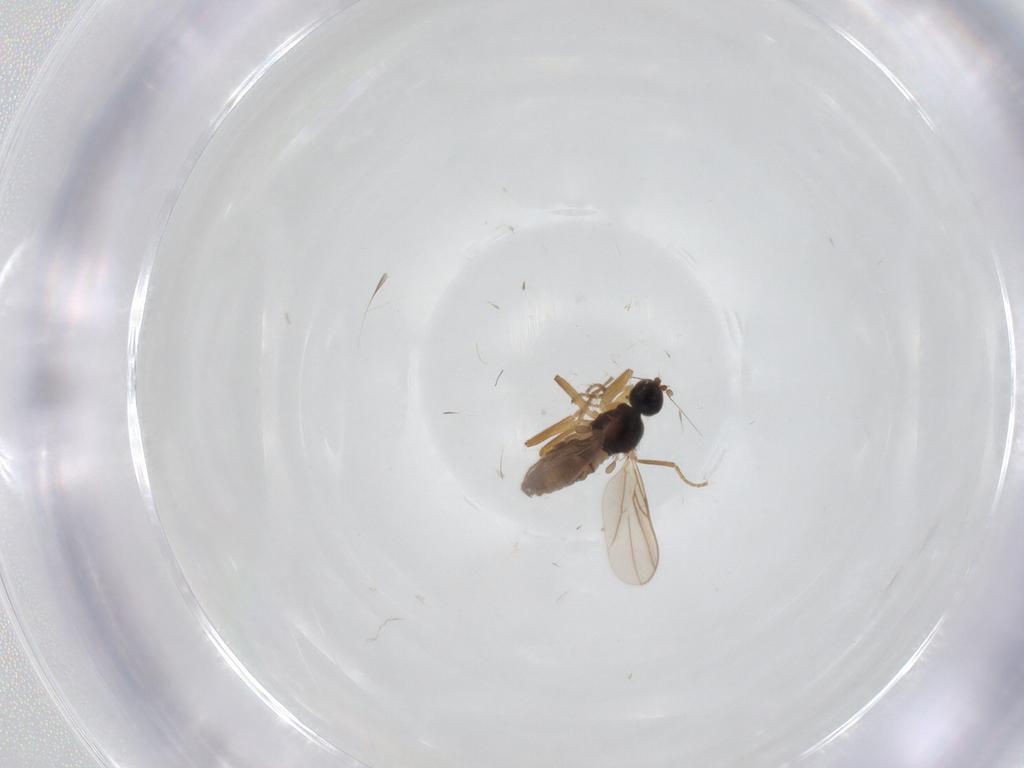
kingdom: Animalia
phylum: Arthropoda
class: Insecta
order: Diptera
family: Hybotidae
